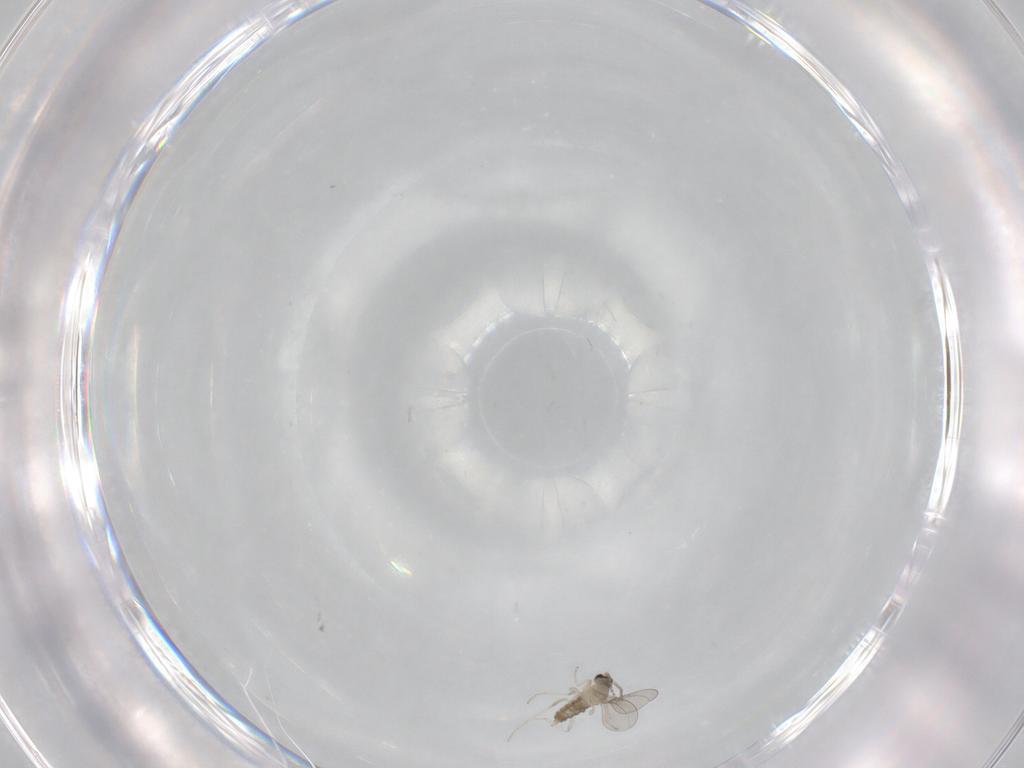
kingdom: Animalia
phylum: Arthropoda
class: Insecta
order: Diptera
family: Cecidomyiidae
